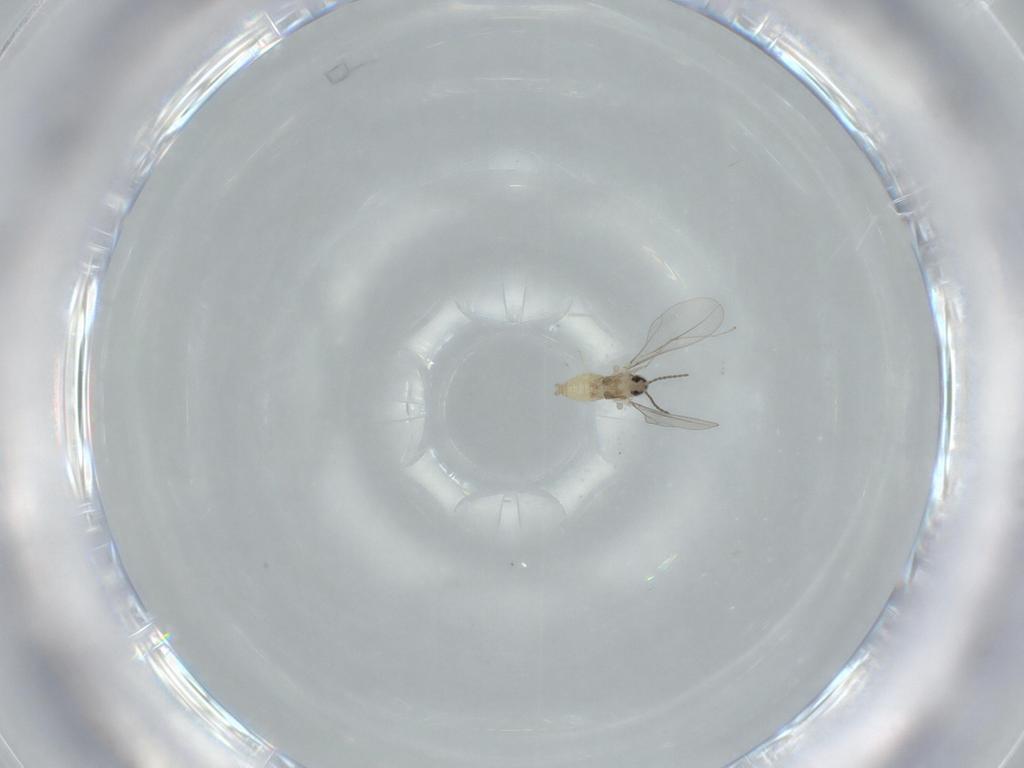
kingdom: Animalia
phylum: Arthropoda
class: Insecta
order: Diptera
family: Cecidomyiidae
